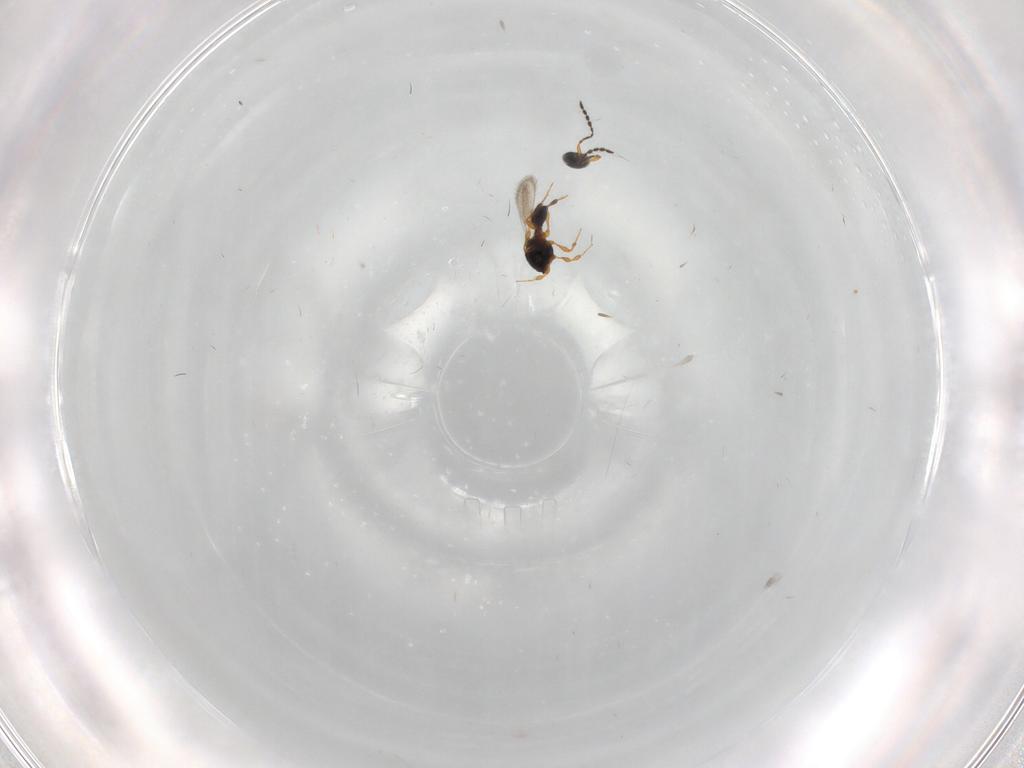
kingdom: Animalia
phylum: Arthropoda
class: Insecta
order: Hymenoptera
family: Platygastridae
